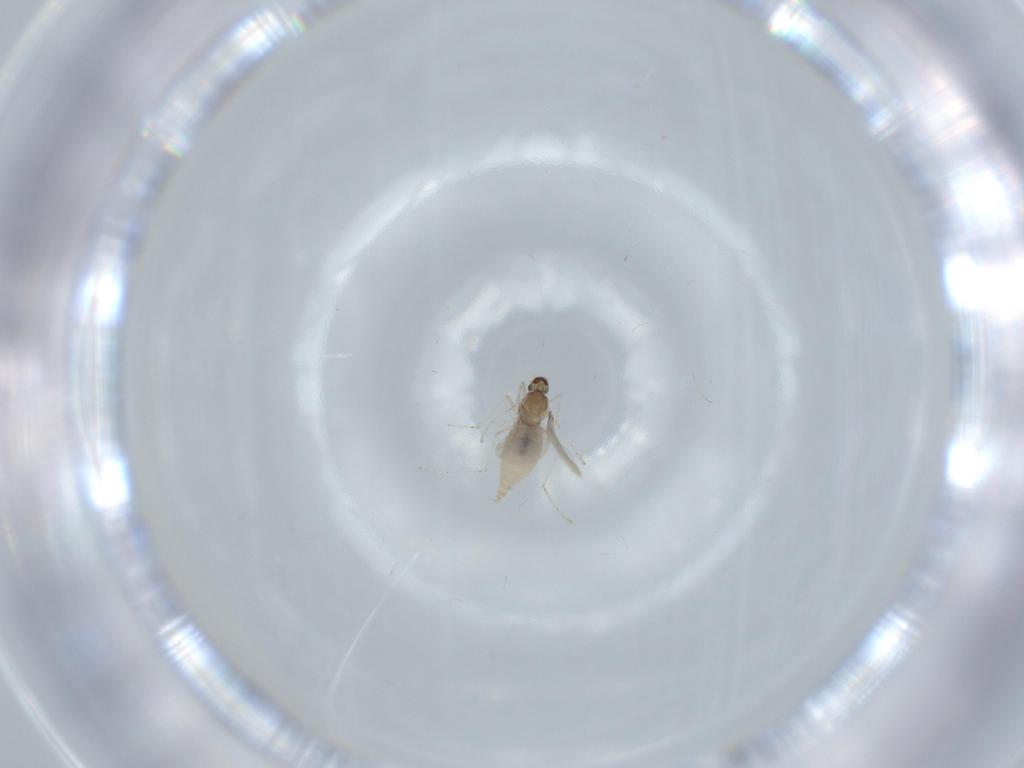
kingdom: Animalia
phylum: Arthropoda
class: Insecta
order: Diptera
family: Cecidomyiidae
